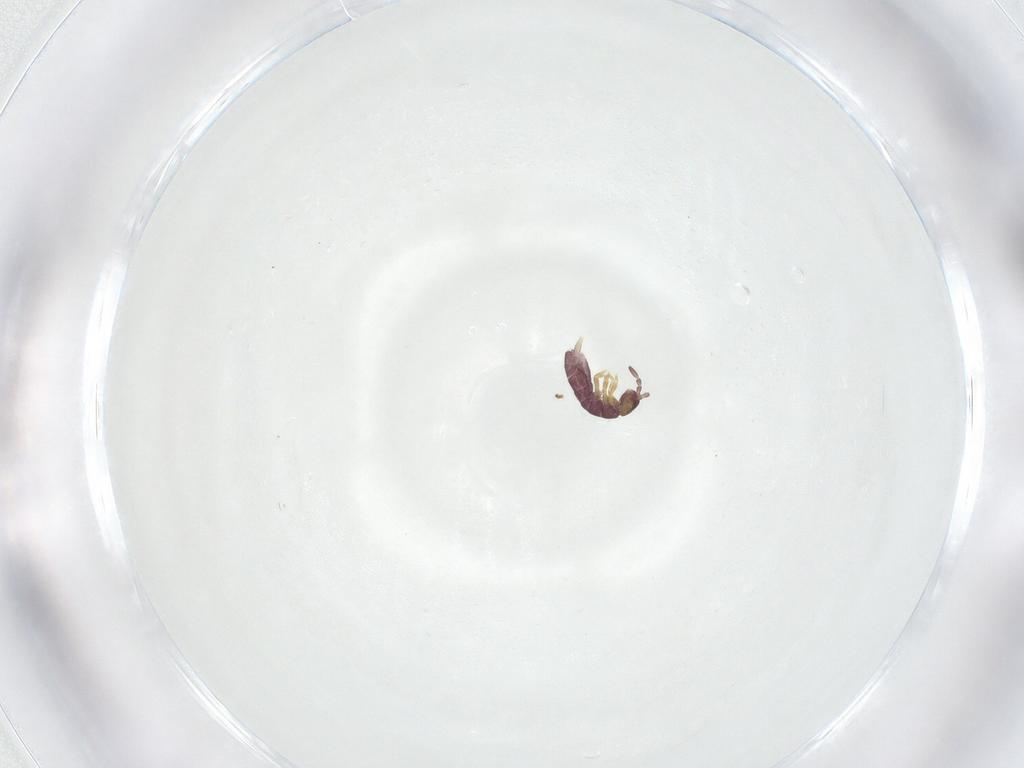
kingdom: Animalia
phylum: Arthropoda
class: Collembola
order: Entomobryomorpha
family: Isotomidae
